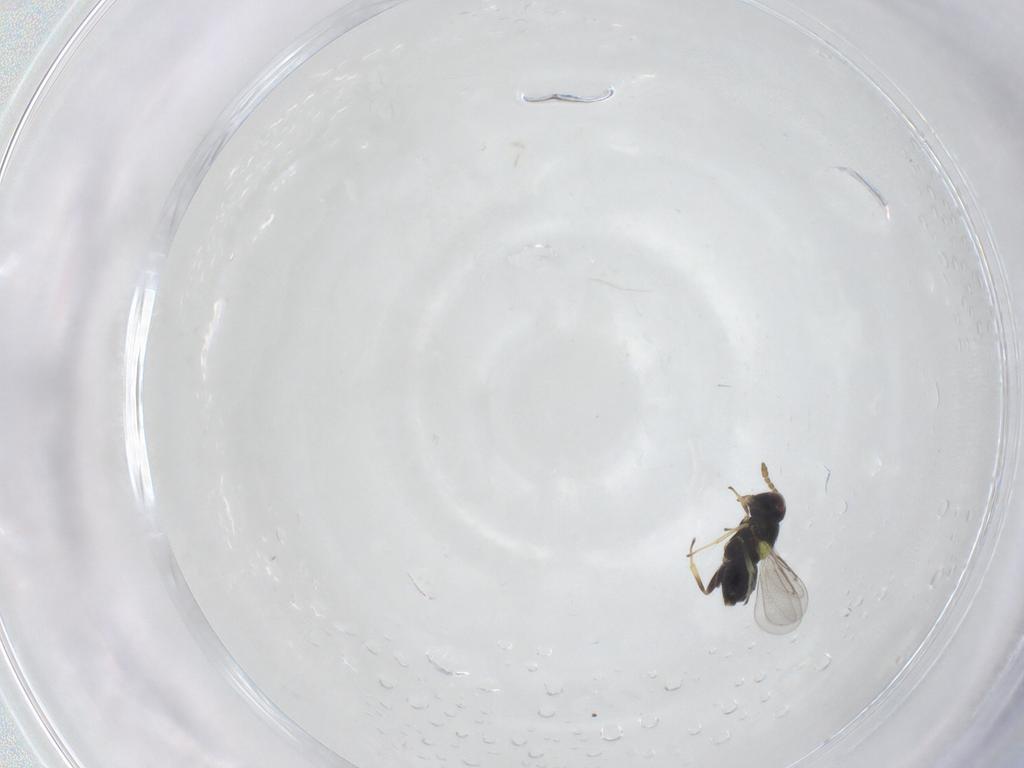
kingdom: Animalia
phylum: Arthropoda
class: Insecta
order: Hymenoptera
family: Aphelinidae
